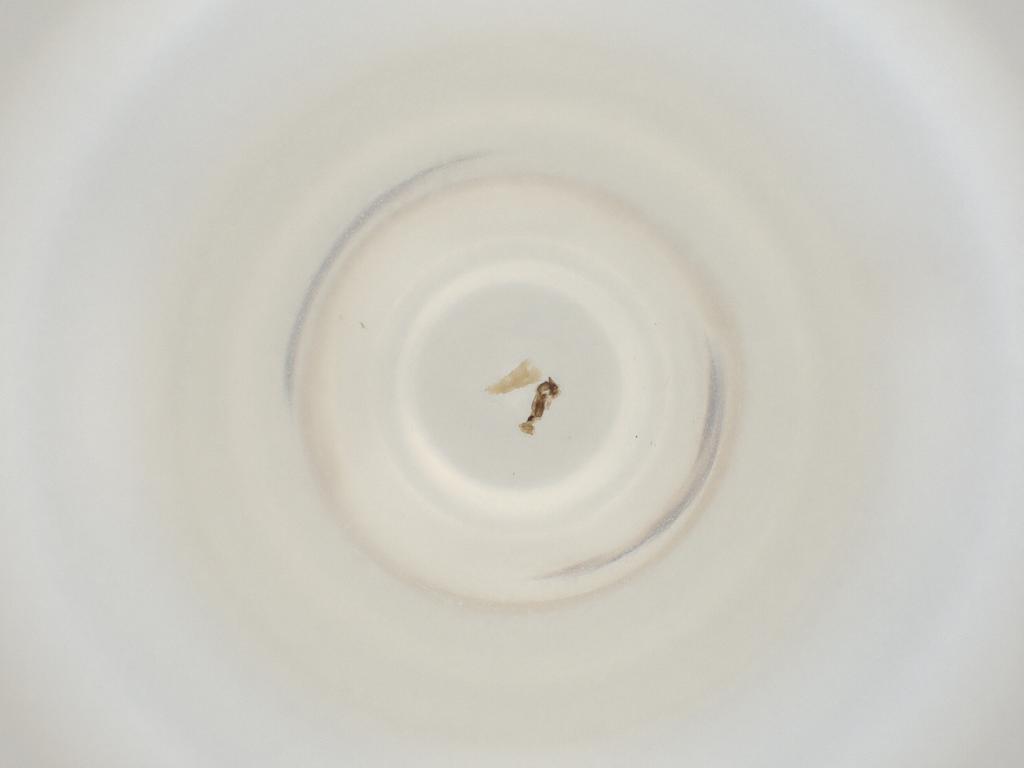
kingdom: Animalia
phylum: Arthropoda
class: Insecta
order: Diptera
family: Cecidomyiidae
